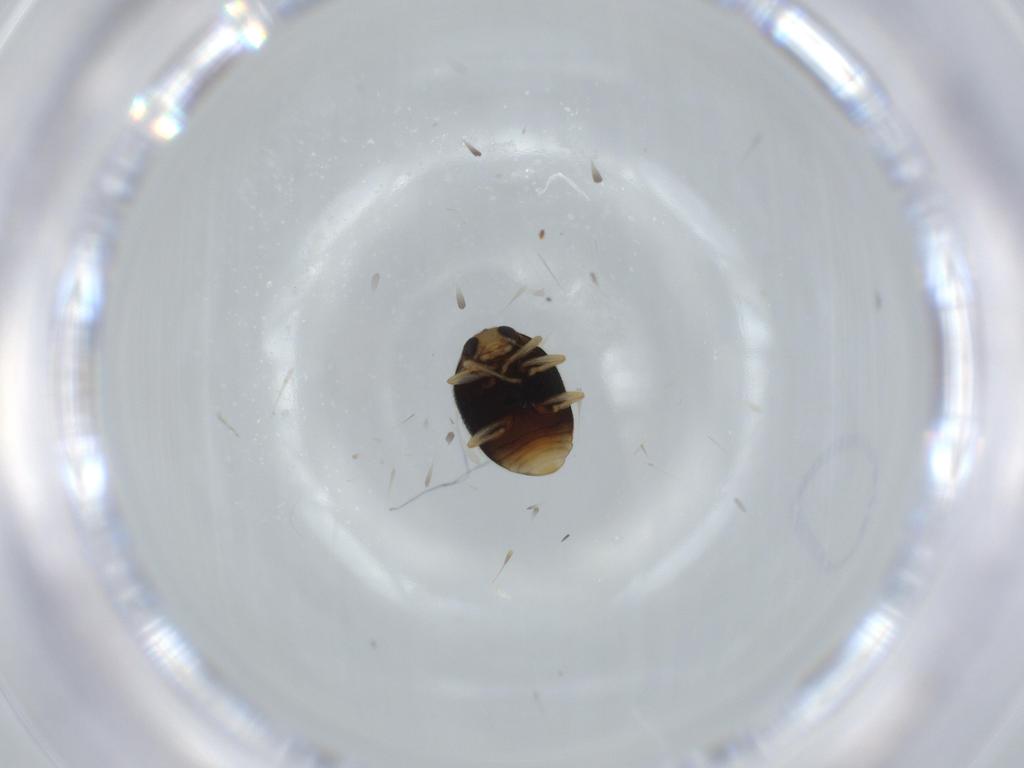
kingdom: Animalia
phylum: Arthropoda
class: Insecta
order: Coleoptera
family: Coccinellidae
